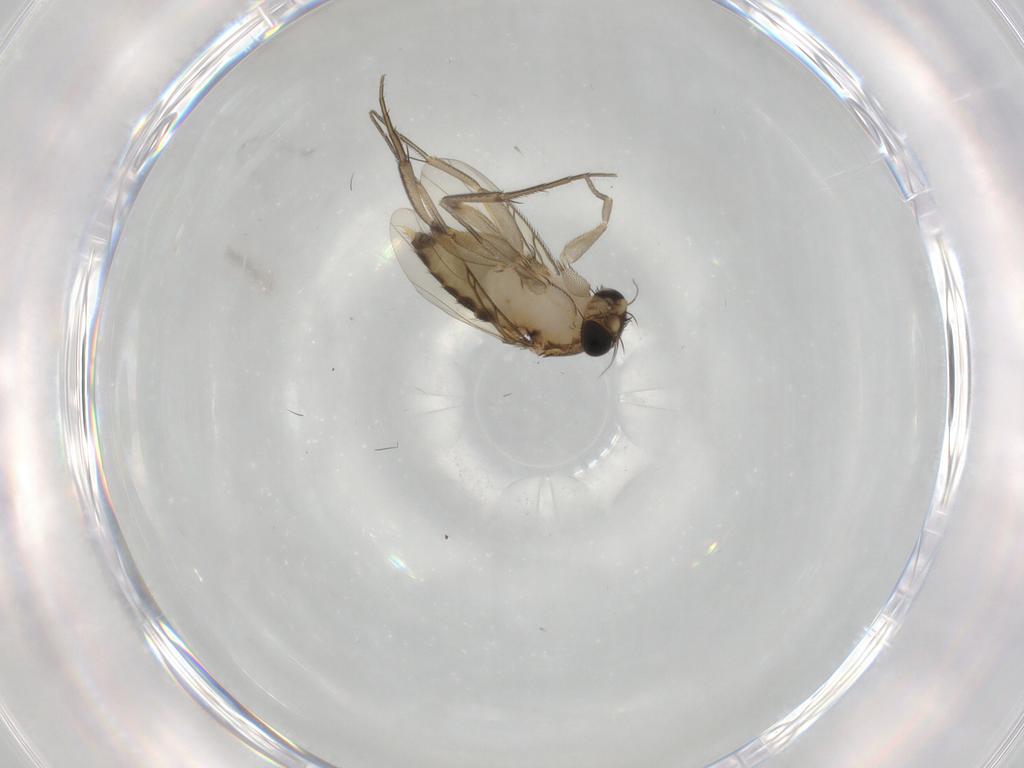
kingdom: Animalia
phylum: Arthropoda
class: Insecta
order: Diptera
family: Phoridae
